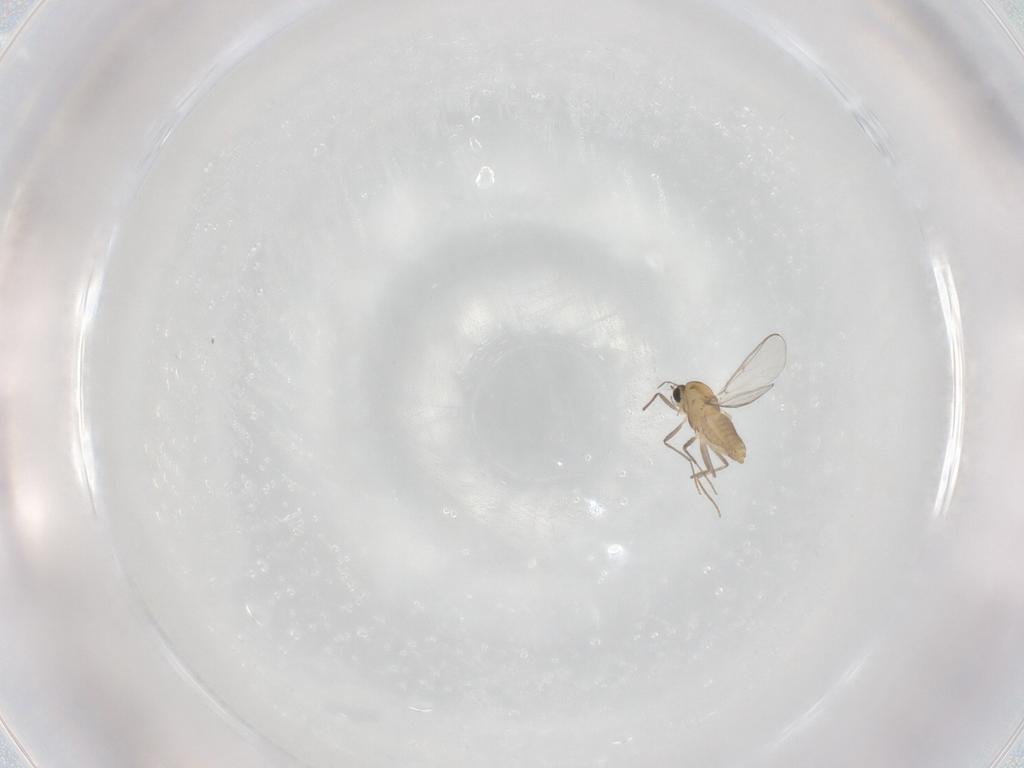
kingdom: Animalia
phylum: Arthropoda
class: Insecta
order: Diptera
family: Chironomidae
